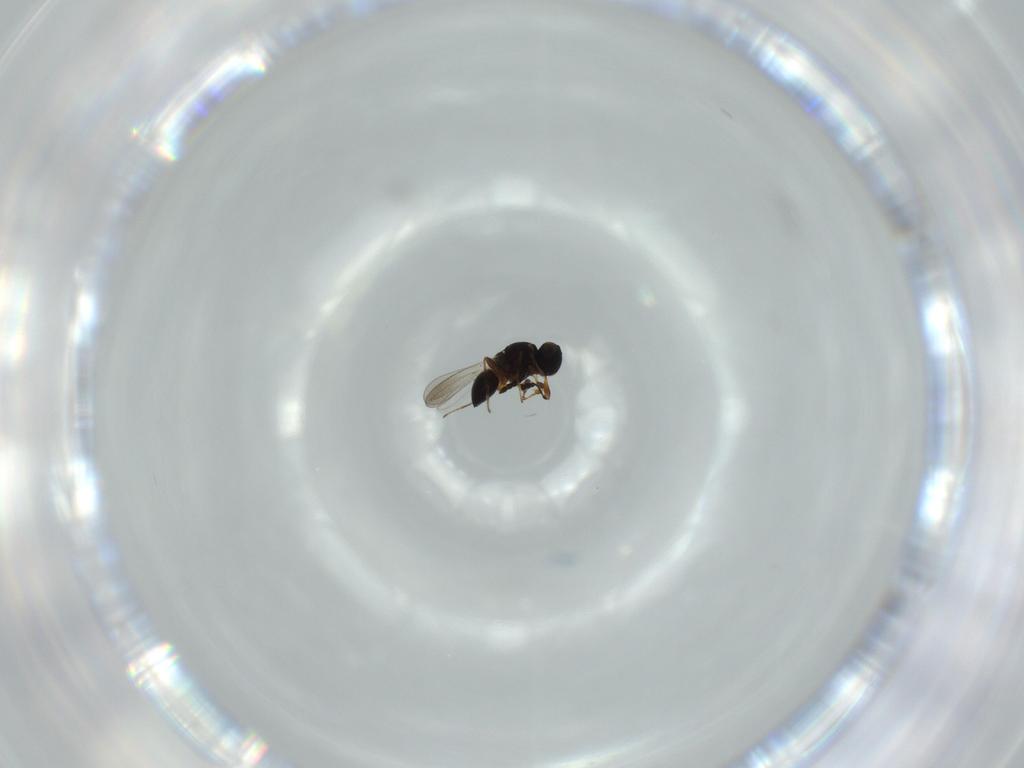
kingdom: Animalia
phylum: Arthropoda
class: Insecta
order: Hymenoptera
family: Platygastridae
